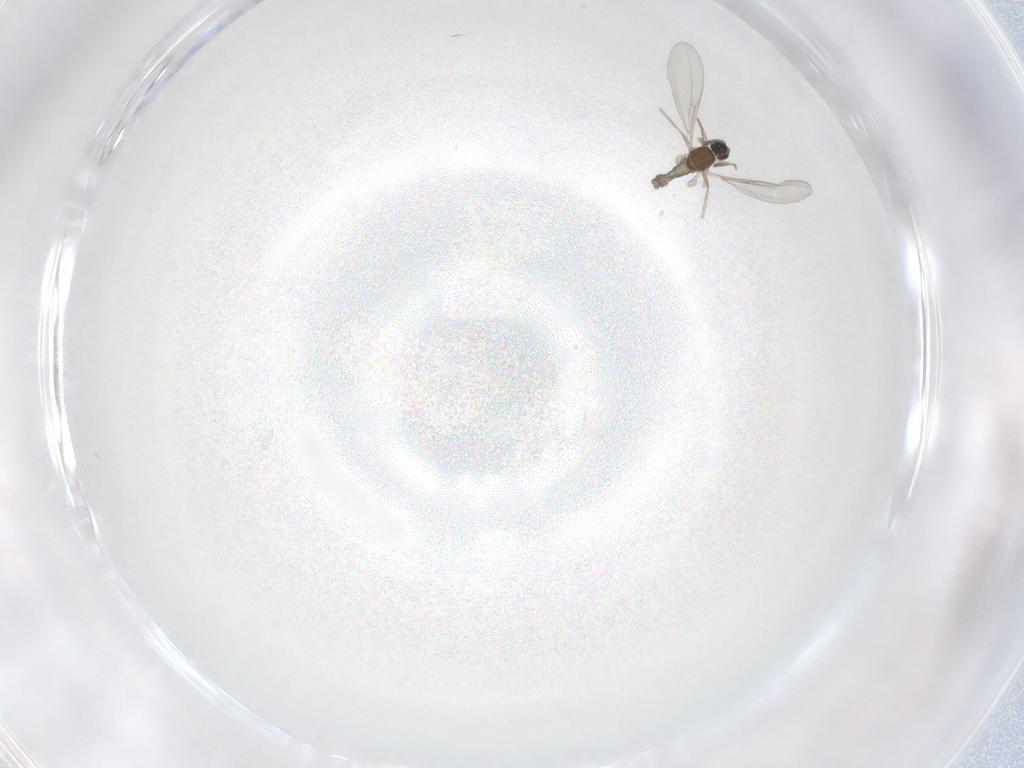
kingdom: Animalia
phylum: Arthropoda
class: Insecta
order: Diptera
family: Cecidomyiidae
